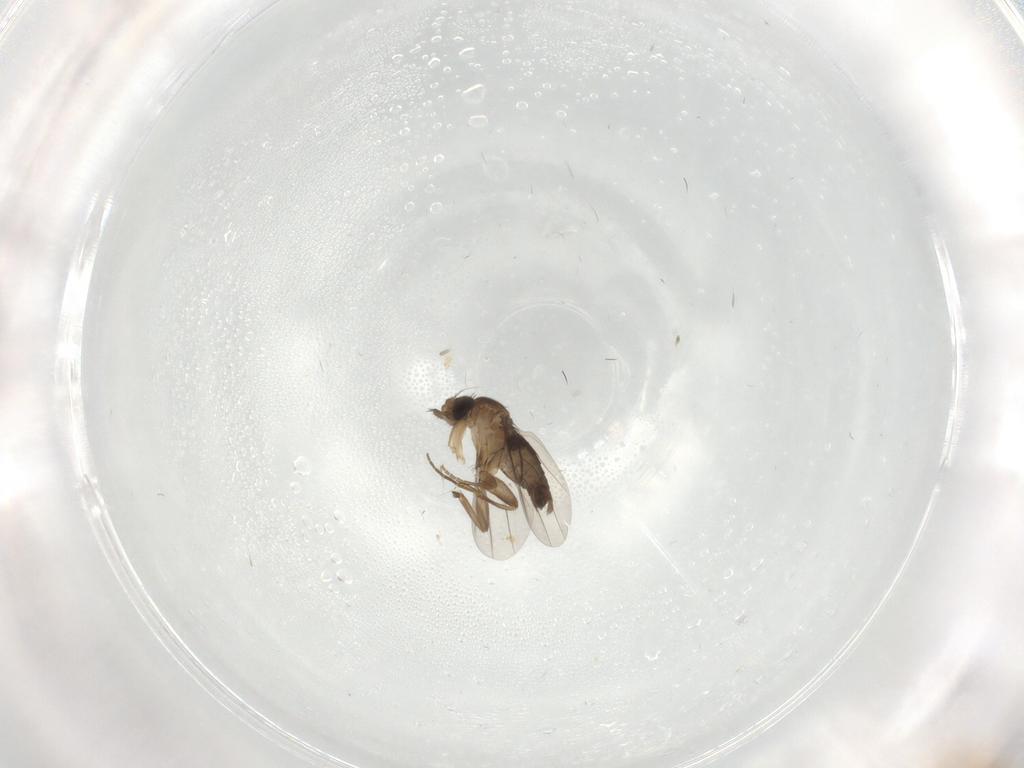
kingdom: Animalia
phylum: Arthropoda
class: Insecta
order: Diptera
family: Phoridae
